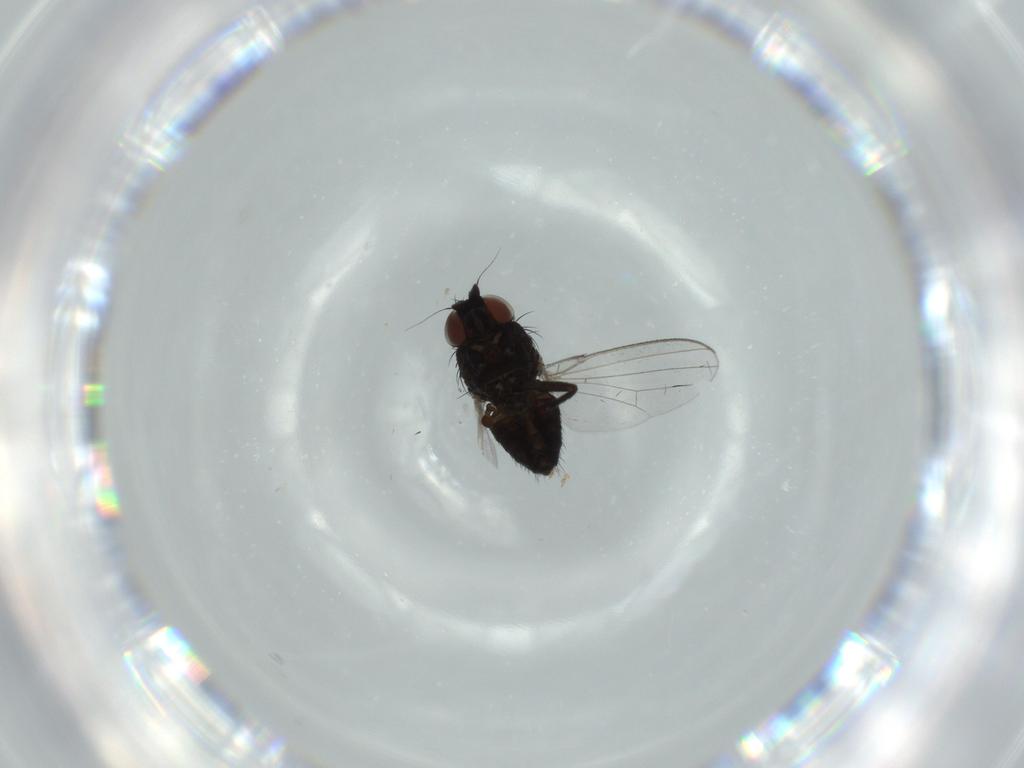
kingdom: Animalia
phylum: Arthropoda
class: Insecta
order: Diptera
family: Milichiidae
